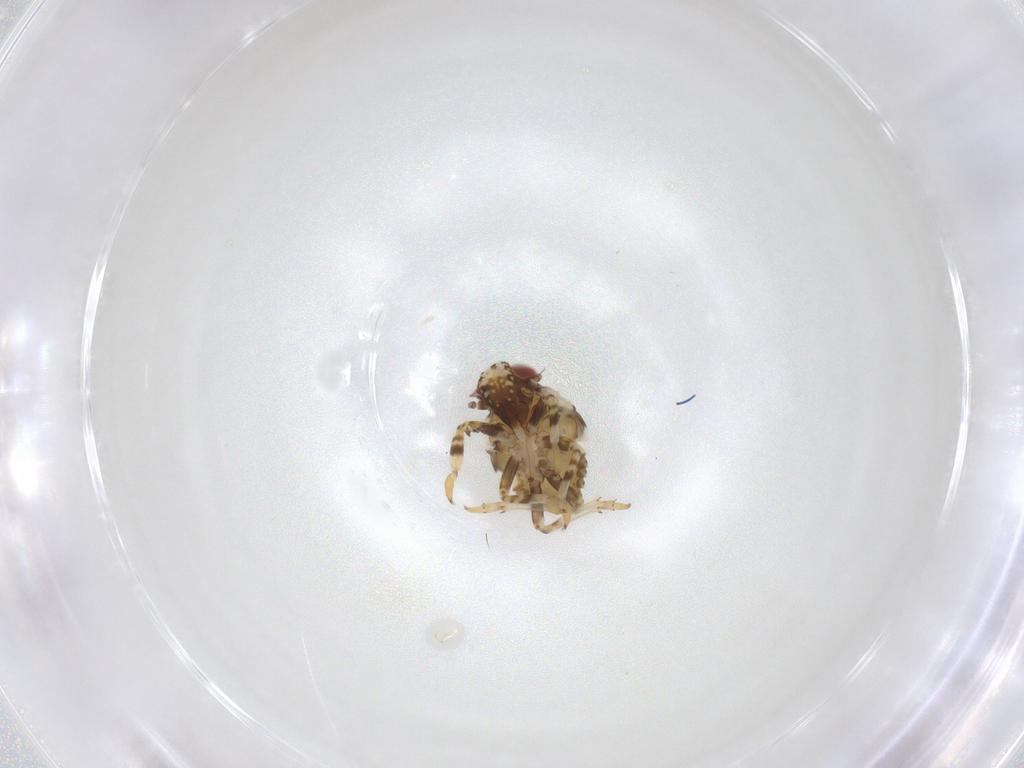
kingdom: Animalia
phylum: Arthropoda
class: Insecta
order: Hemiptera
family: Issidae
